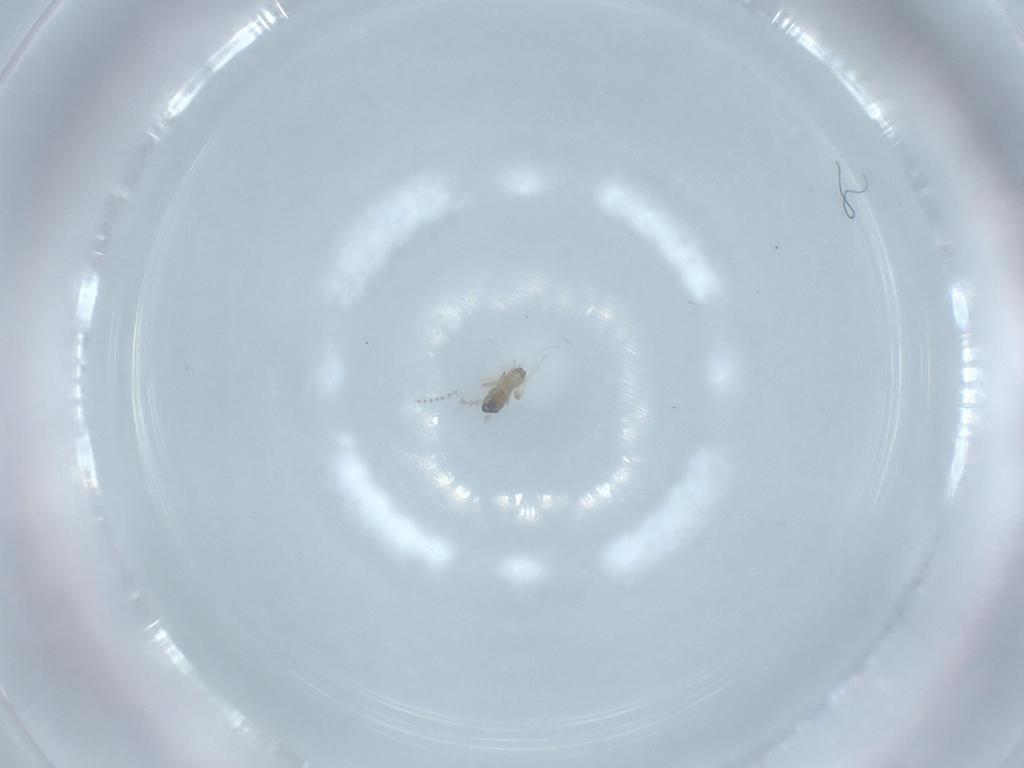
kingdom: Animalia
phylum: Arthropoda
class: Insecta
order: Diptera
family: Cecidomyiidae
